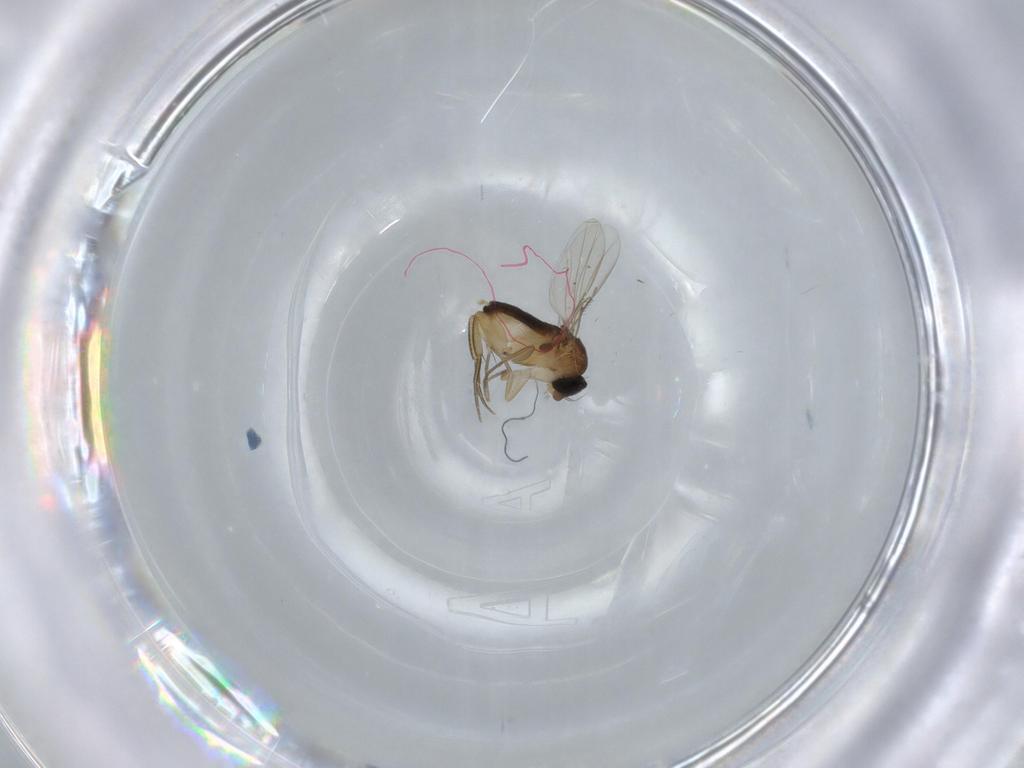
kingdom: Animalia
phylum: Arthropoda
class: Insecta
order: Diptera
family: Phoridae
